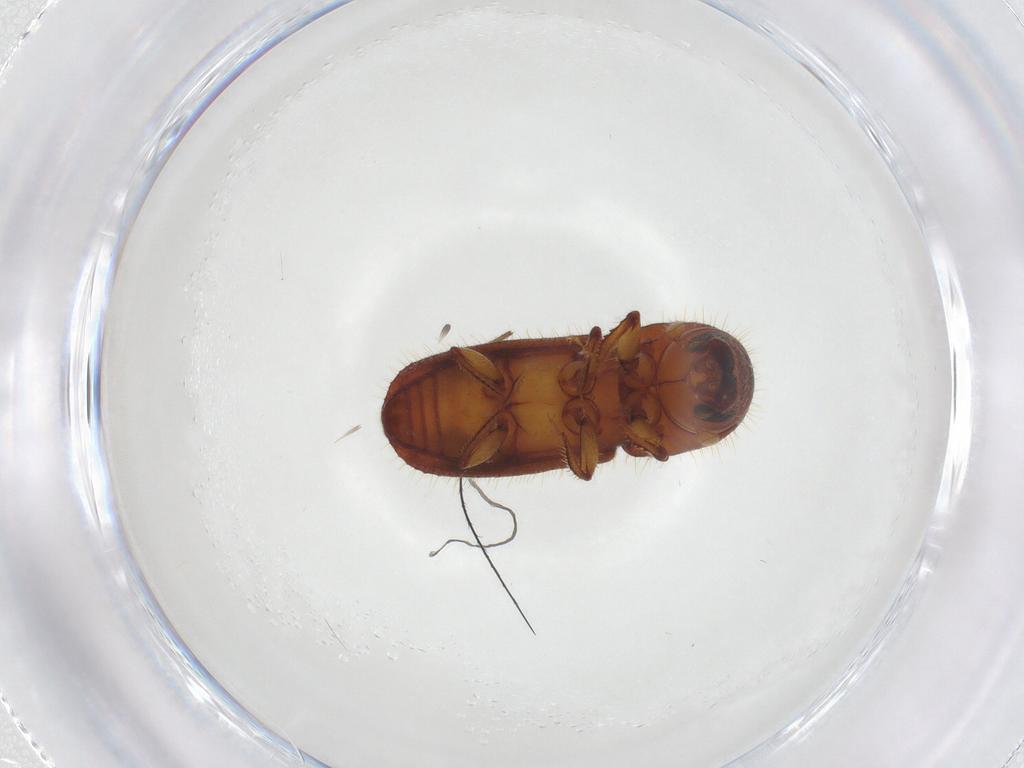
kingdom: Animalia
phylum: Arthropoda
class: Insecta
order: Coleoptera
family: Curculionidae
